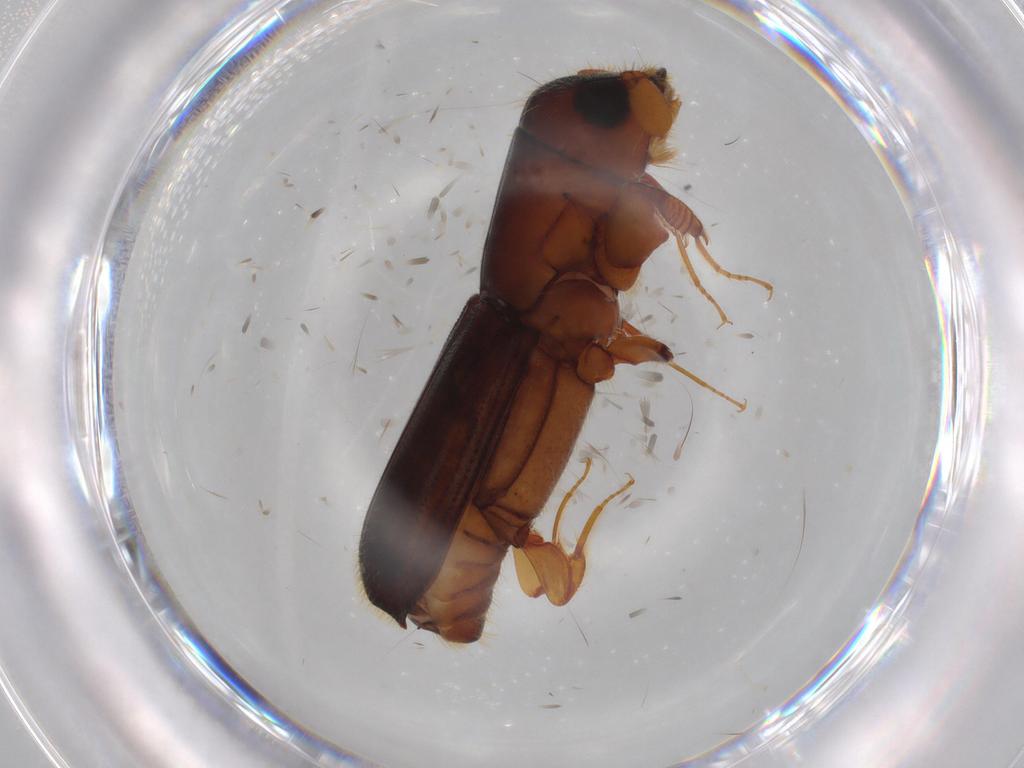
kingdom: Animalia
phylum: Arthropoda
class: Insecta
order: Coleoptera
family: Curculionidae
